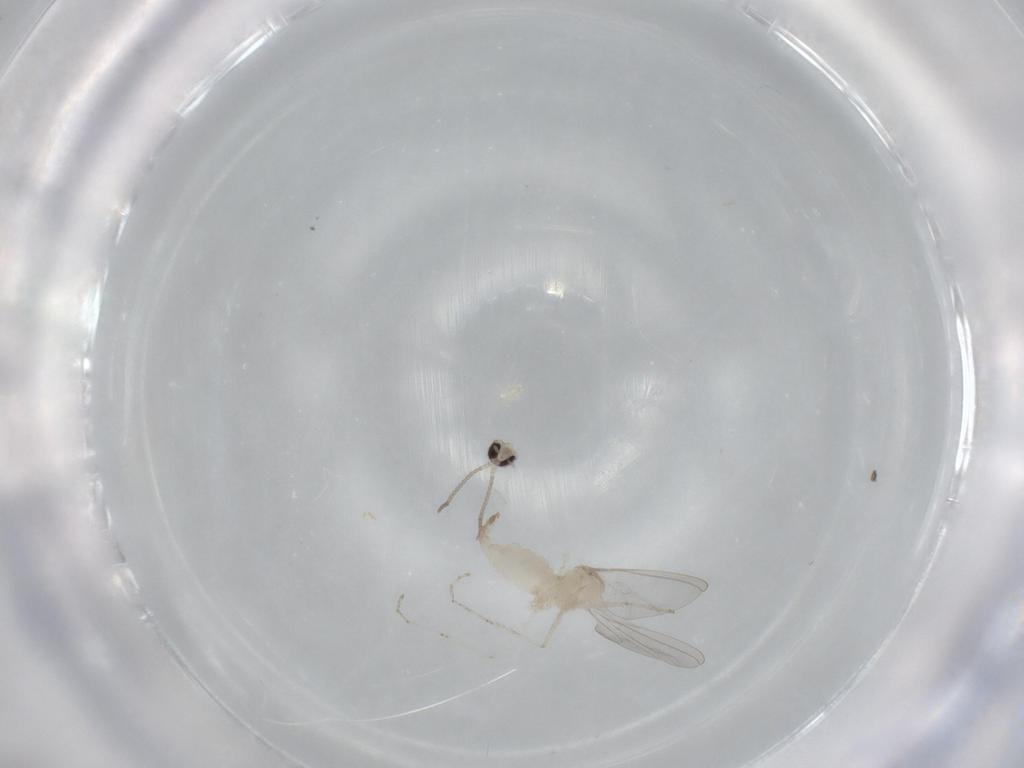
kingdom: Animalia
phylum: Arthropoda
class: Insecta
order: Diptera
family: Cecidomyiidae
